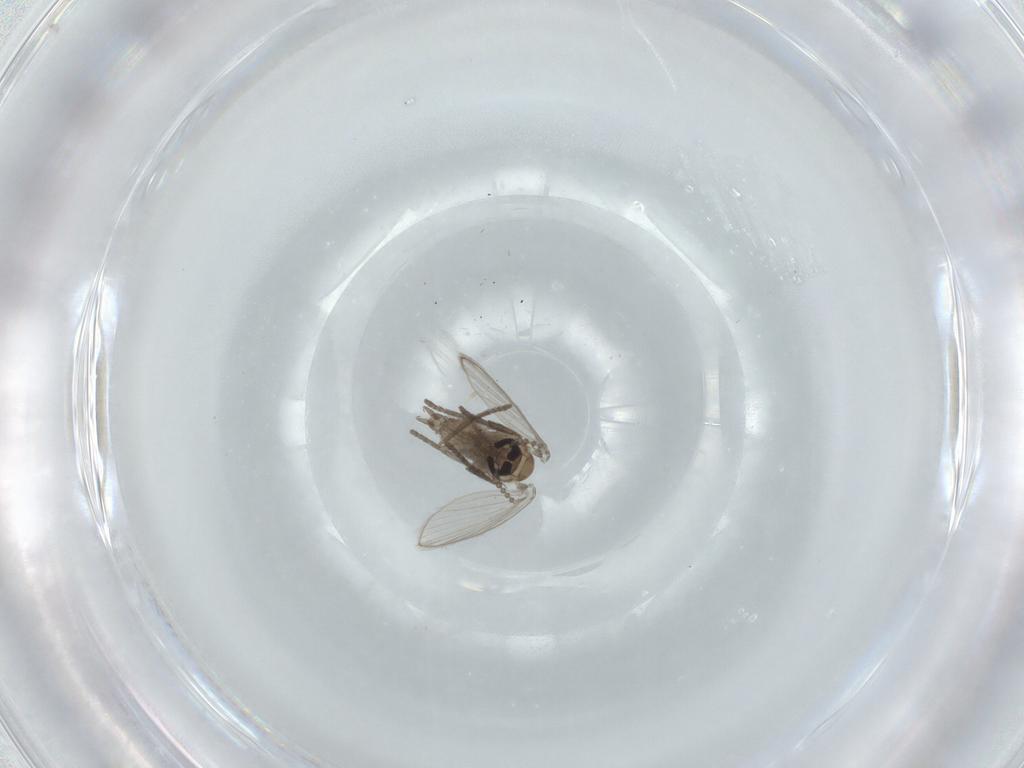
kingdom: Animalia
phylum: Arthropoda
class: Insecta
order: Diptera
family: Psychodidae
